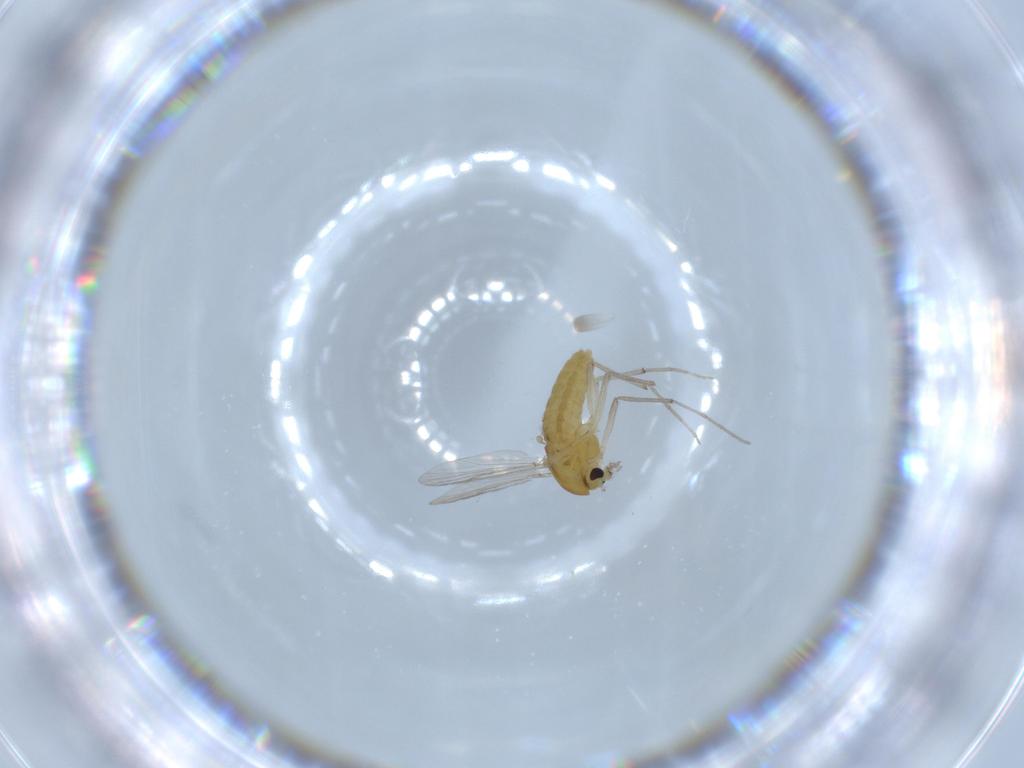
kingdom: Animalia
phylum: Arthropoda
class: Insecta
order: Diptera
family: Chironomidae
